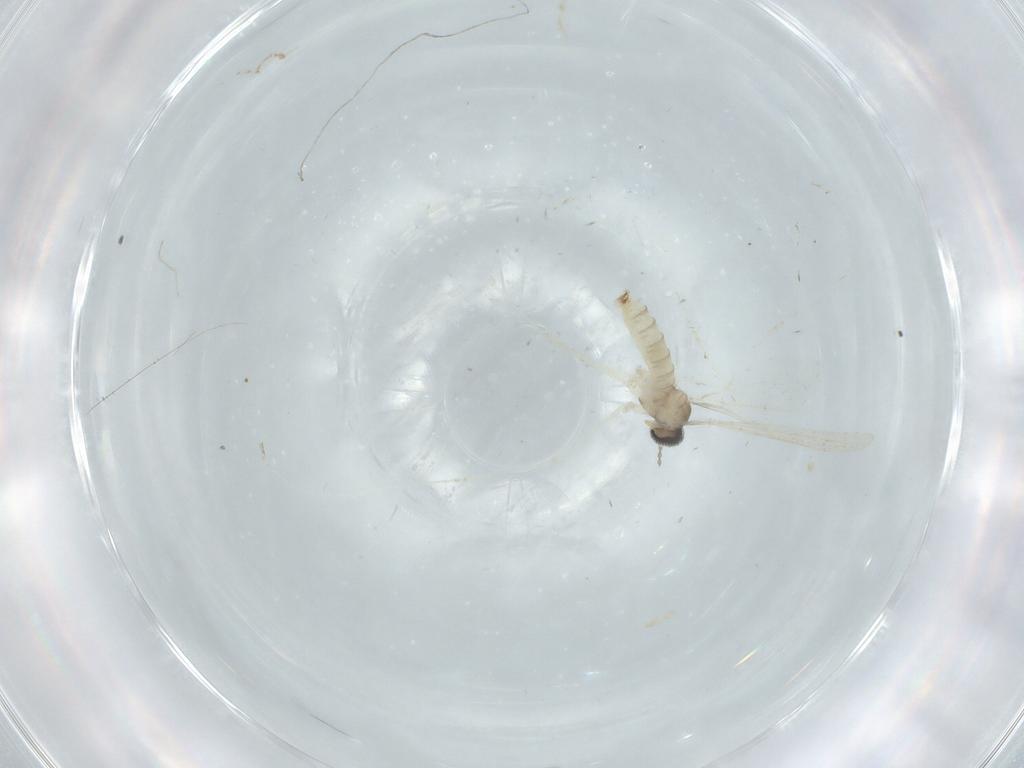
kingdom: Animalia
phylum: Arthropoda
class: Insecta
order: Diptera
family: Cecidomyiidae
